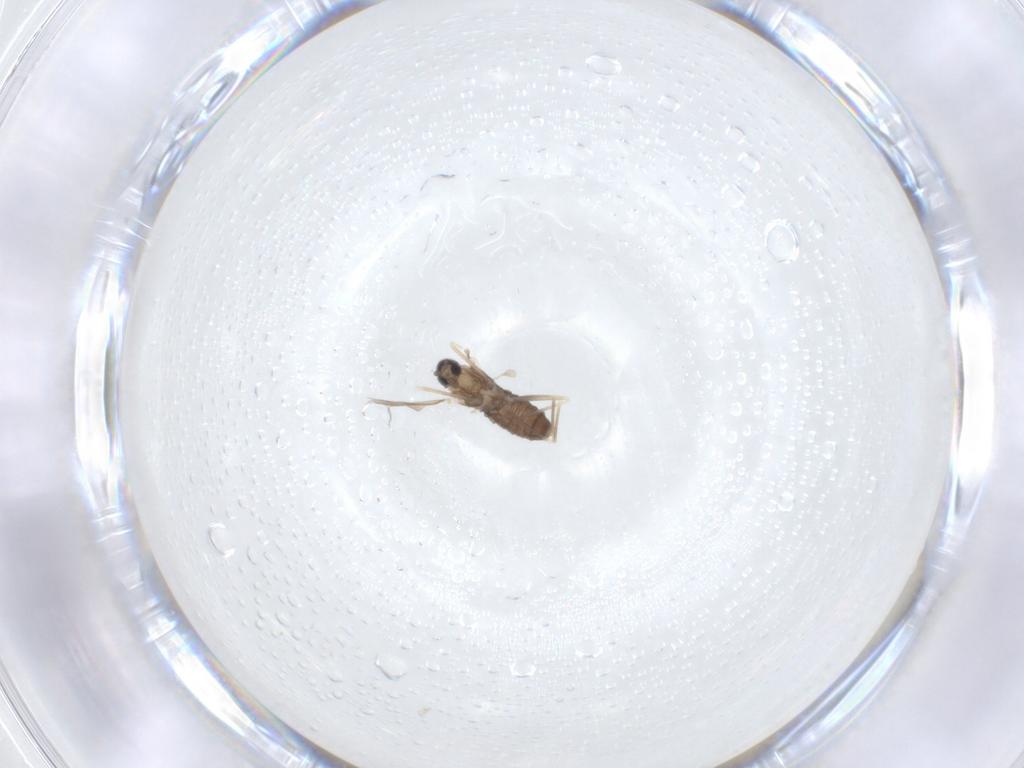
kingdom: Animalia
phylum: Arthropoda
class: Insecta
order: Diptera
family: Cecidomyiidae
